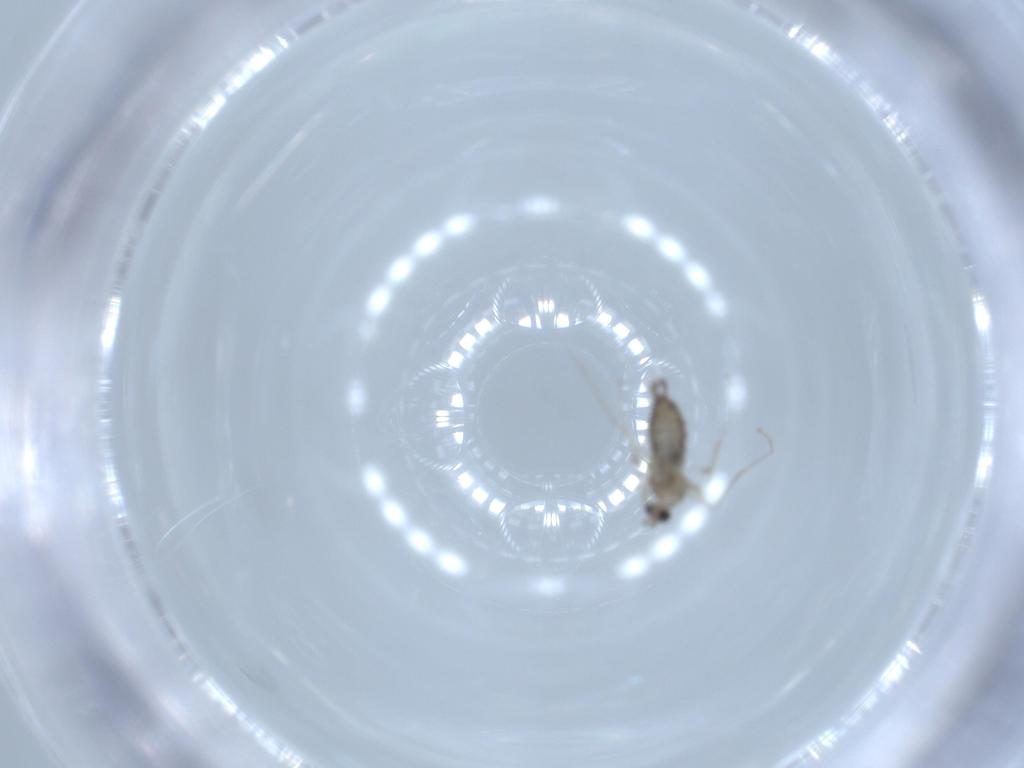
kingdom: Animalia
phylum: Arthropoda
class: Insecta
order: Diptera
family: Cecidomyiidae
